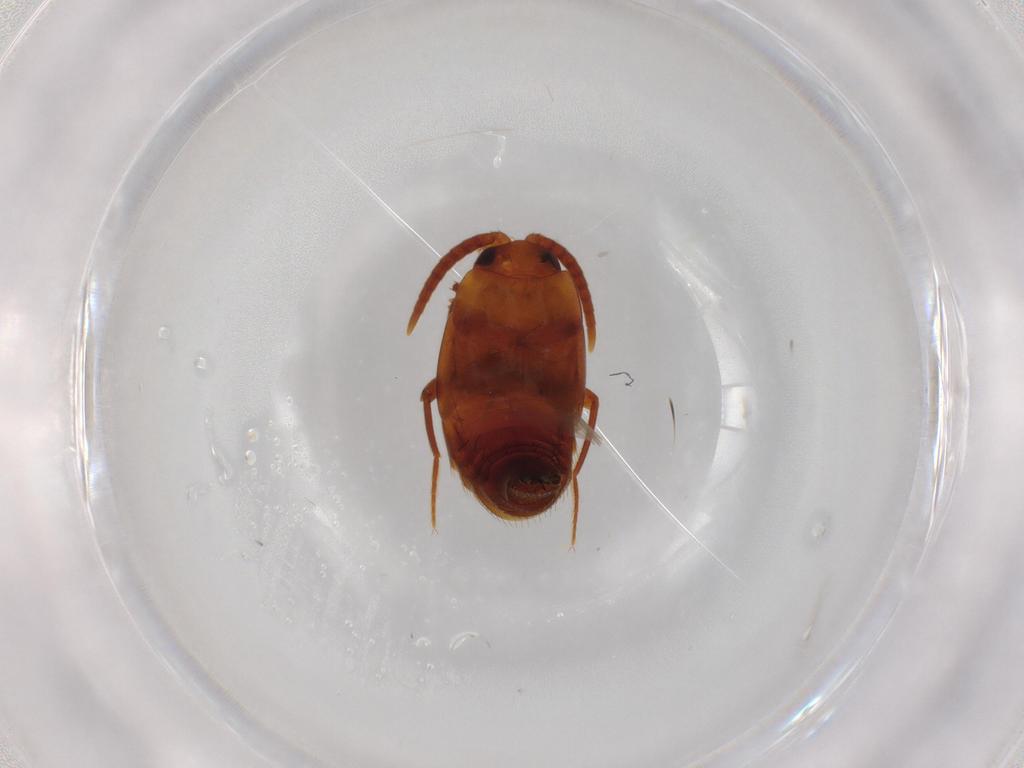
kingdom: Animalia
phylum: Arthropoda
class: Insecta
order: Coleoptera
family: Staphylinidae
